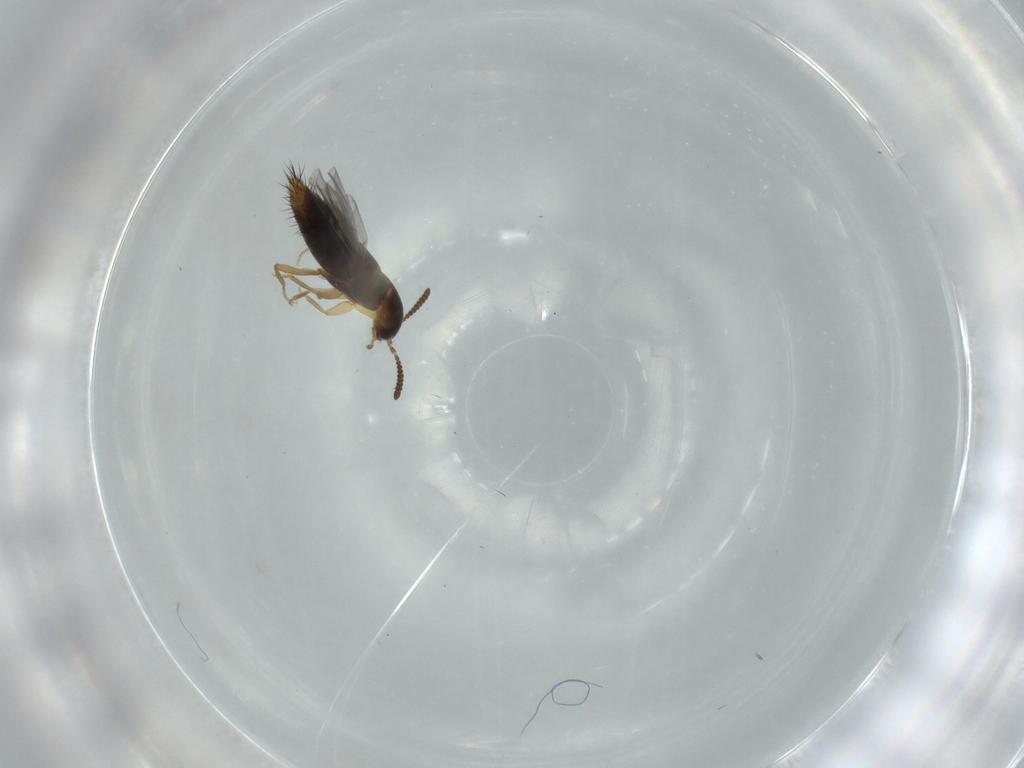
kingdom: Animalia
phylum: Arthropoda
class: Insecta
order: Coleoptera
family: Staphylinidae
